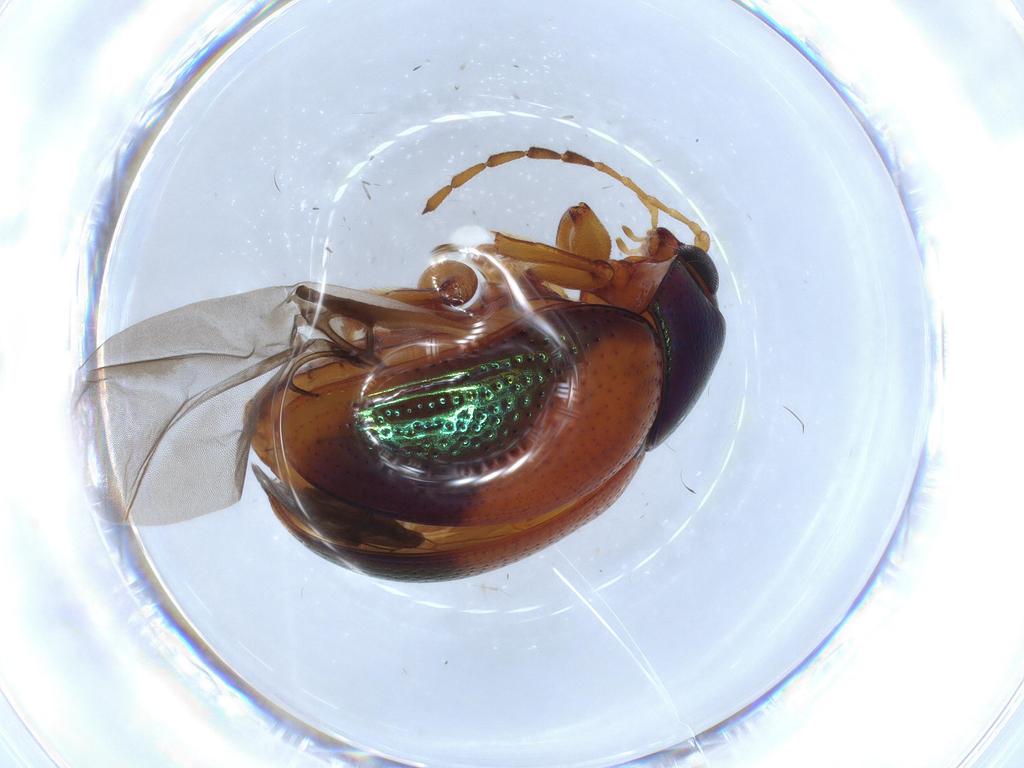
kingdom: Animalia
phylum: Arthropoda
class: Insecta
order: Coleoptera
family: Chrysomelidae
